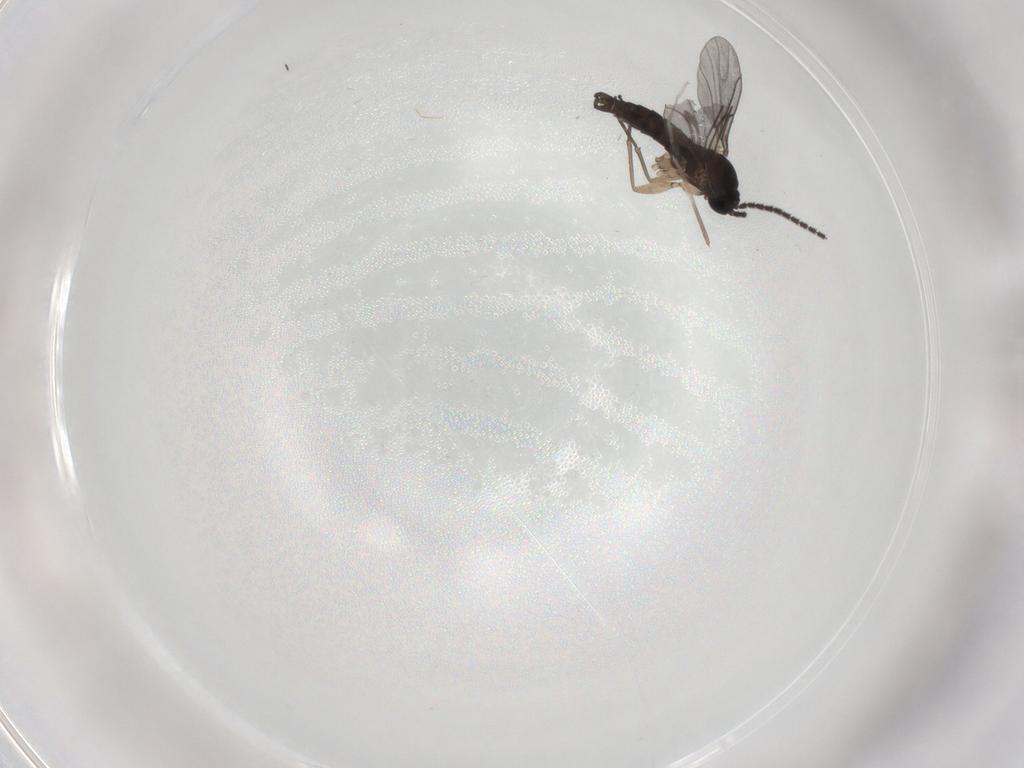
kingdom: Animalia
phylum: Arthropoda
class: Insecta
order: Diptera
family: Sciaridae
